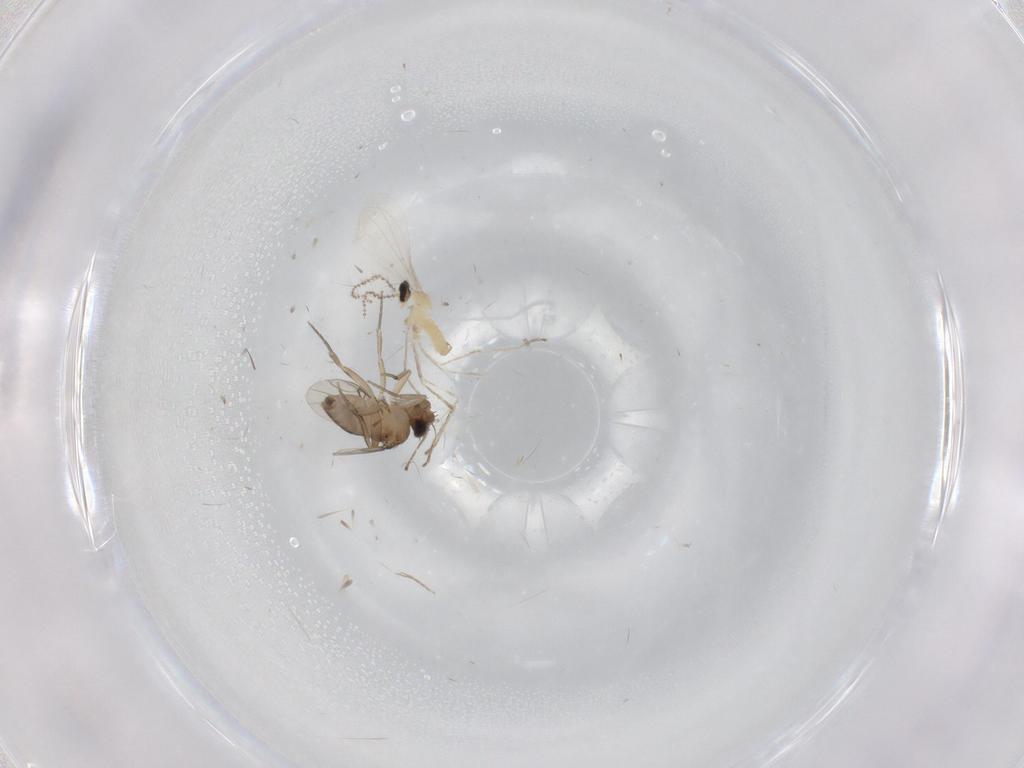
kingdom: Animalia
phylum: Arthropoda
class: Insecta
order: Diptera
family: Cecidomyiidae
